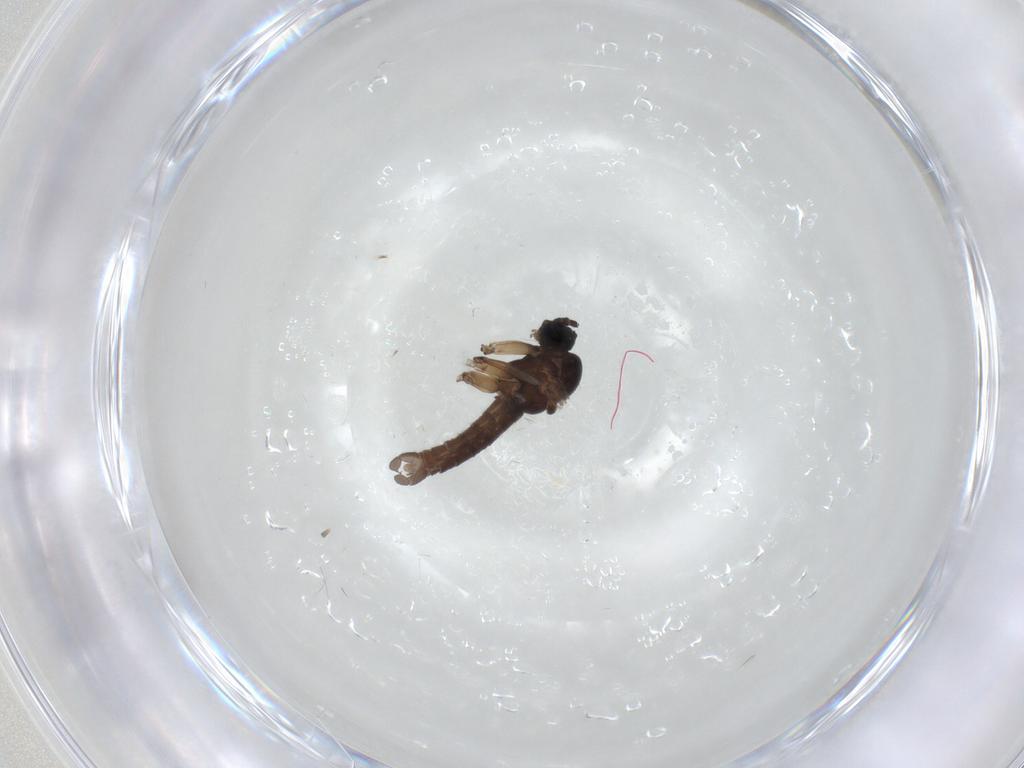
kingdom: Animalia
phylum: Arthropoda
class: Insecta
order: Diptera
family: Sciaridae
